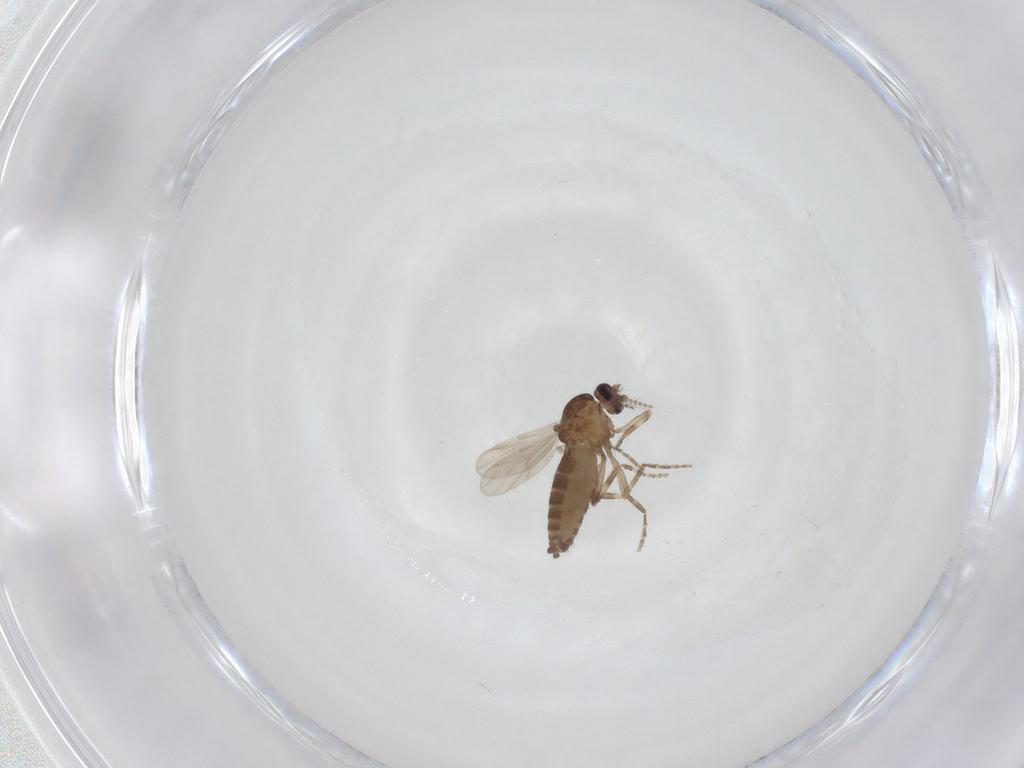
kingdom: Animalia
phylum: Arthropoda
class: Insecta
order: Diptera
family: Ceratopogonidae
